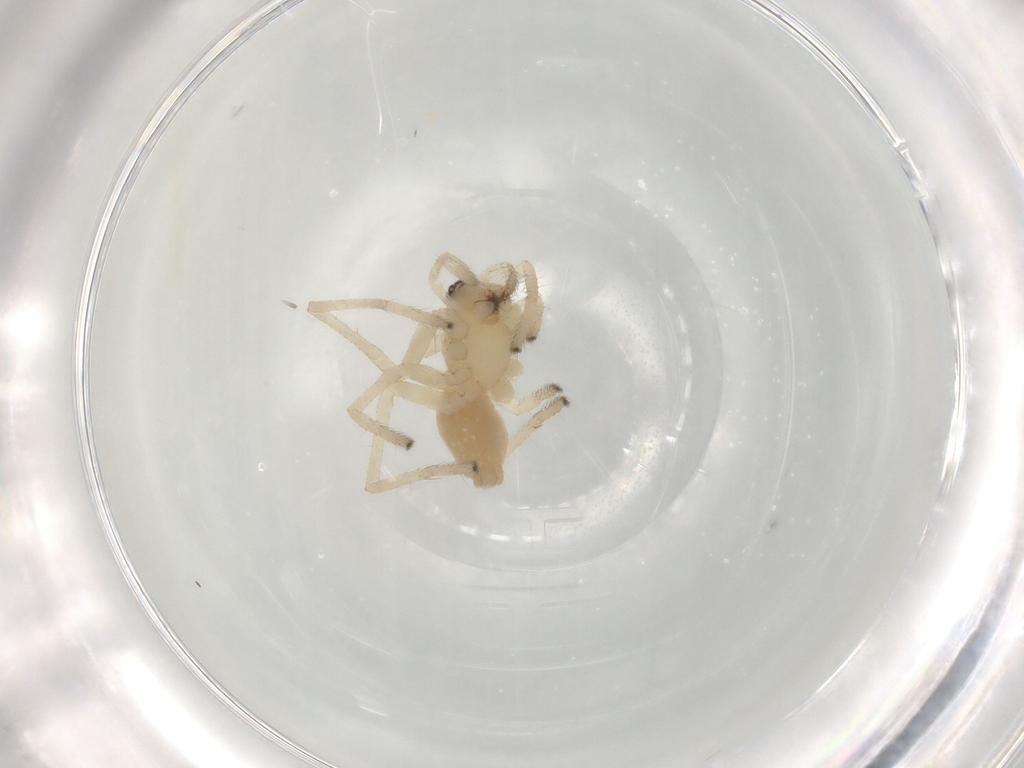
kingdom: Animalia
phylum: Arthropoda
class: Arachnida
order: Araneae
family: Cheiracanthiidae
